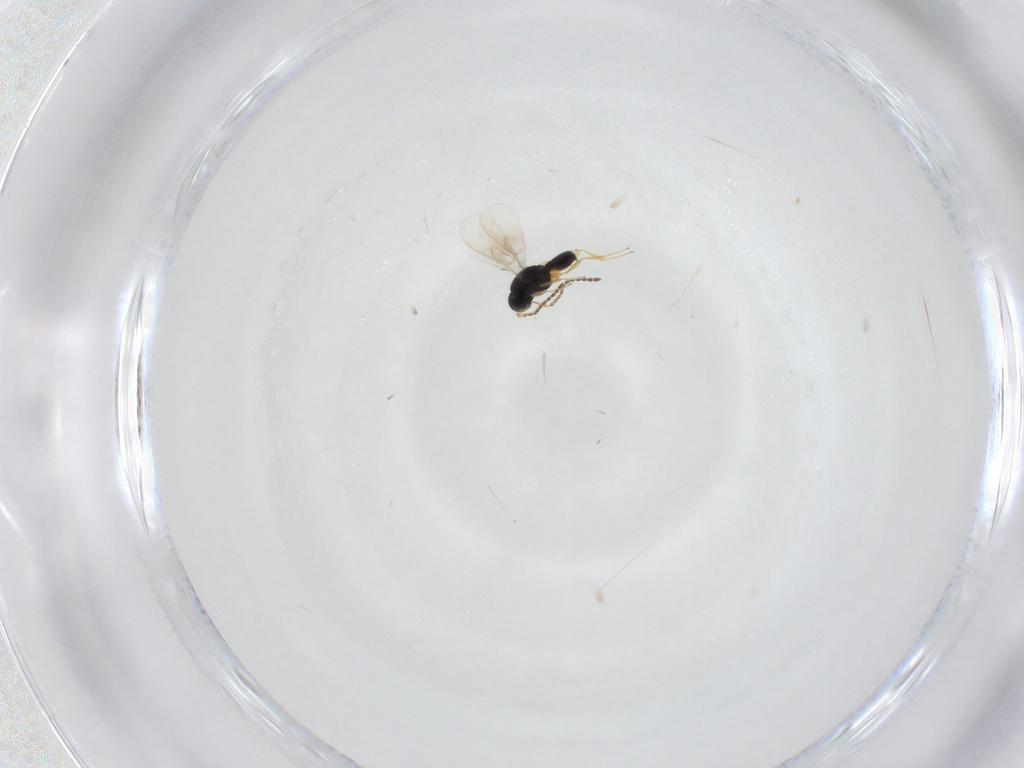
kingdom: Animalia
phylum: Arthropoda
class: Insecta
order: Hymenoptera
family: Scelionidae
